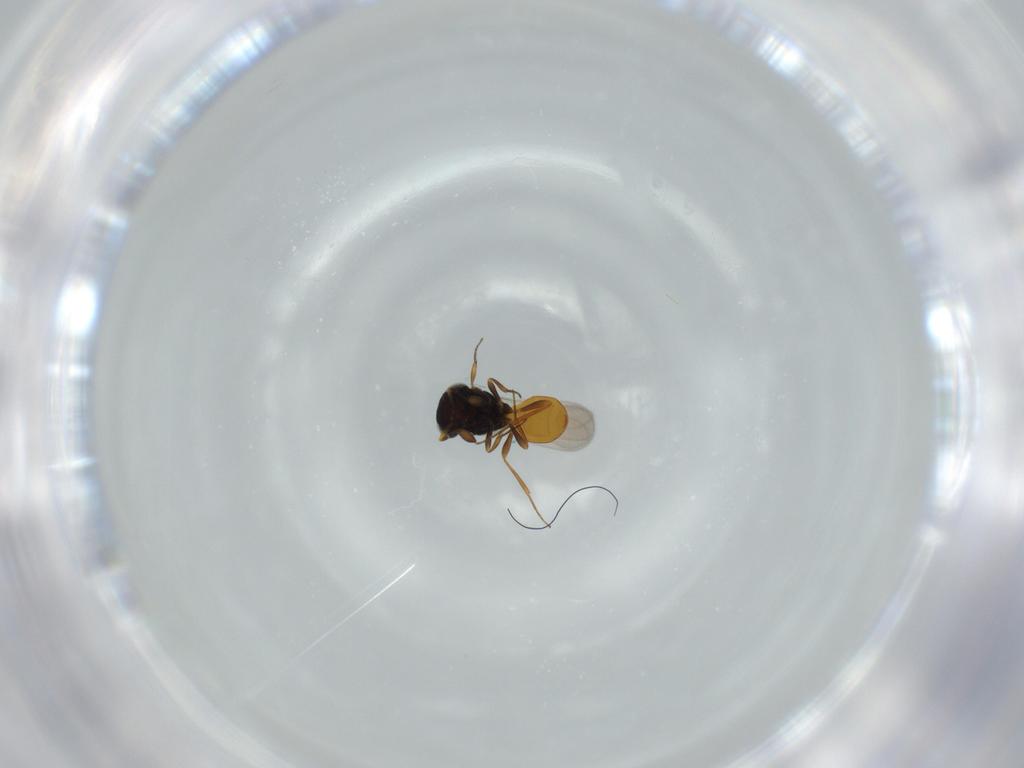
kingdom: Animalia
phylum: Arthropoda
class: Insecta
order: Hymenoptera
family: Scelionidae
